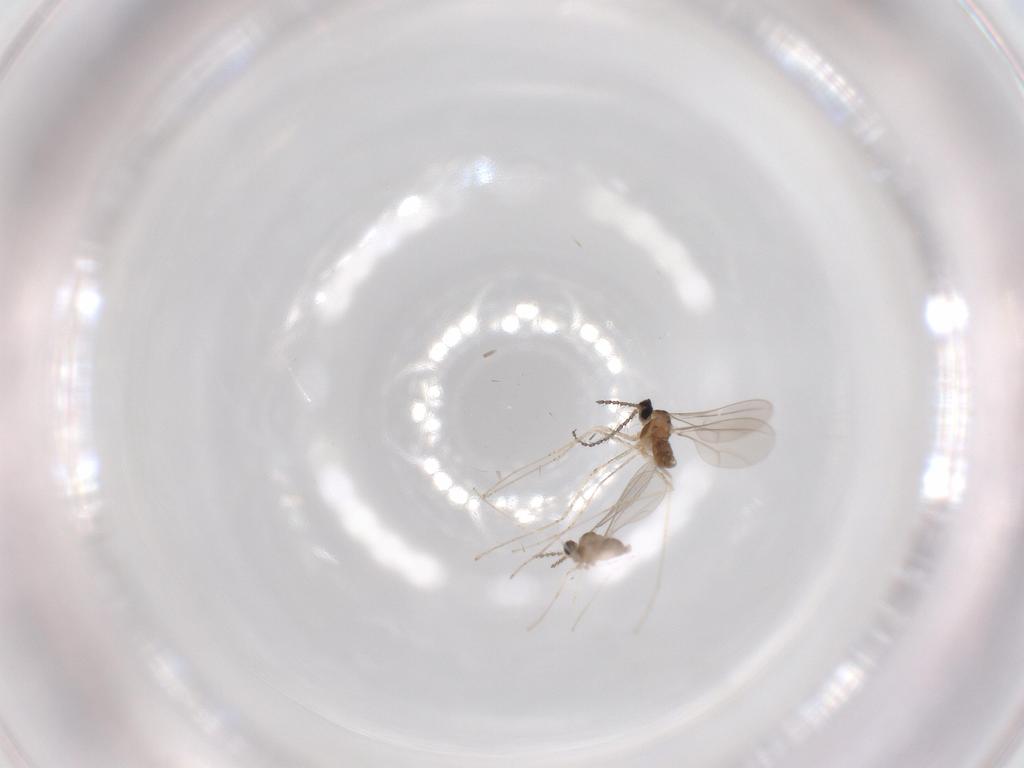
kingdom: Animalia
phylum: Arthropoda
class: Insecta
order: Diptera
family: Cecidomyiidae
